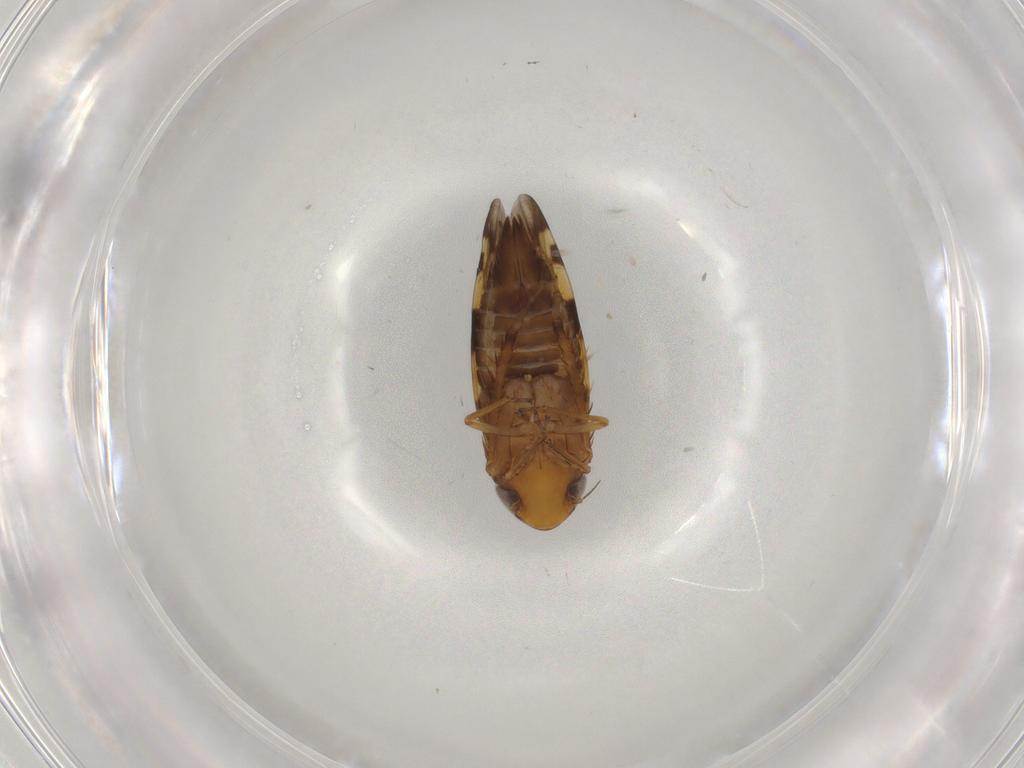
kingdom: Animalia
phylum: Arthropoda
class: Insecta
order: Hemiptera
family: Cicadellidae
